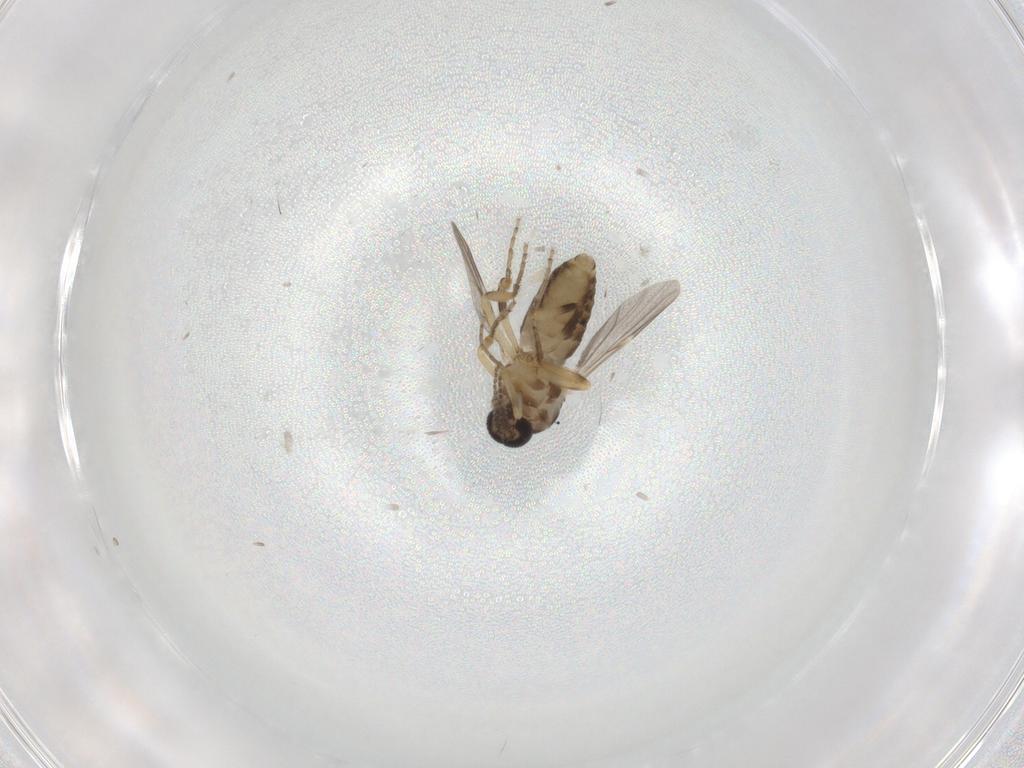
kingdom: Animalia
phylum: Arthropoda
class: Insecta
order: Diptera
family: Ceratopogonidae
